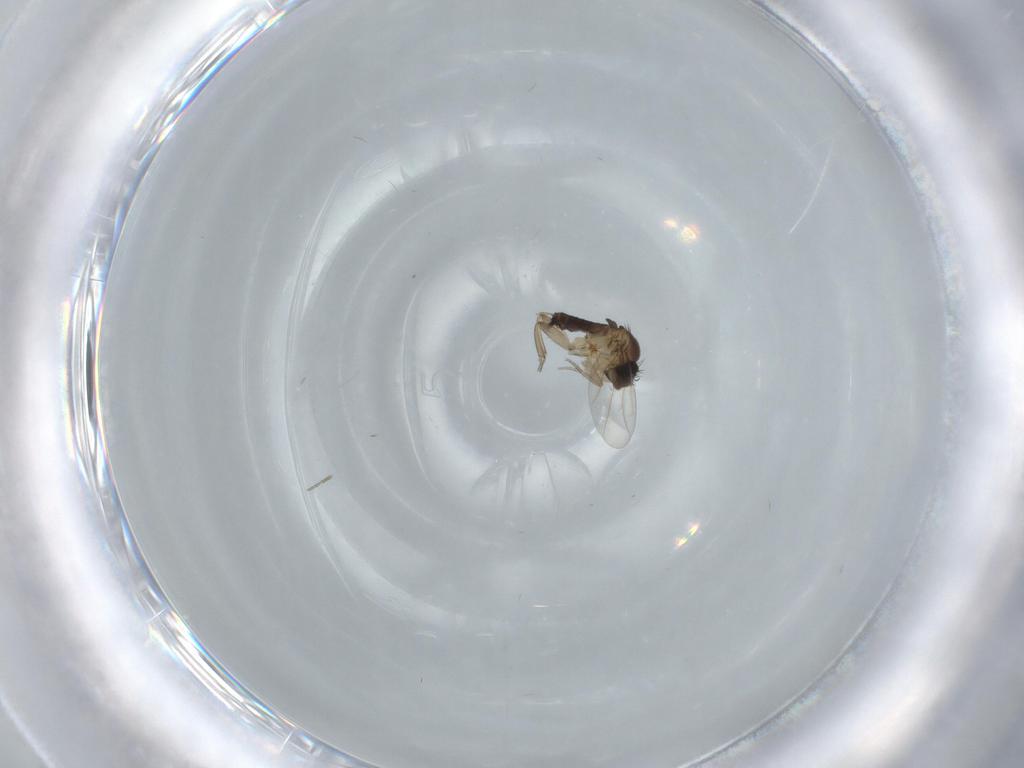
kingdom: Animalia
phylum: Arthropoda
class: Insecta
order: Diptera
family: Phoridae
